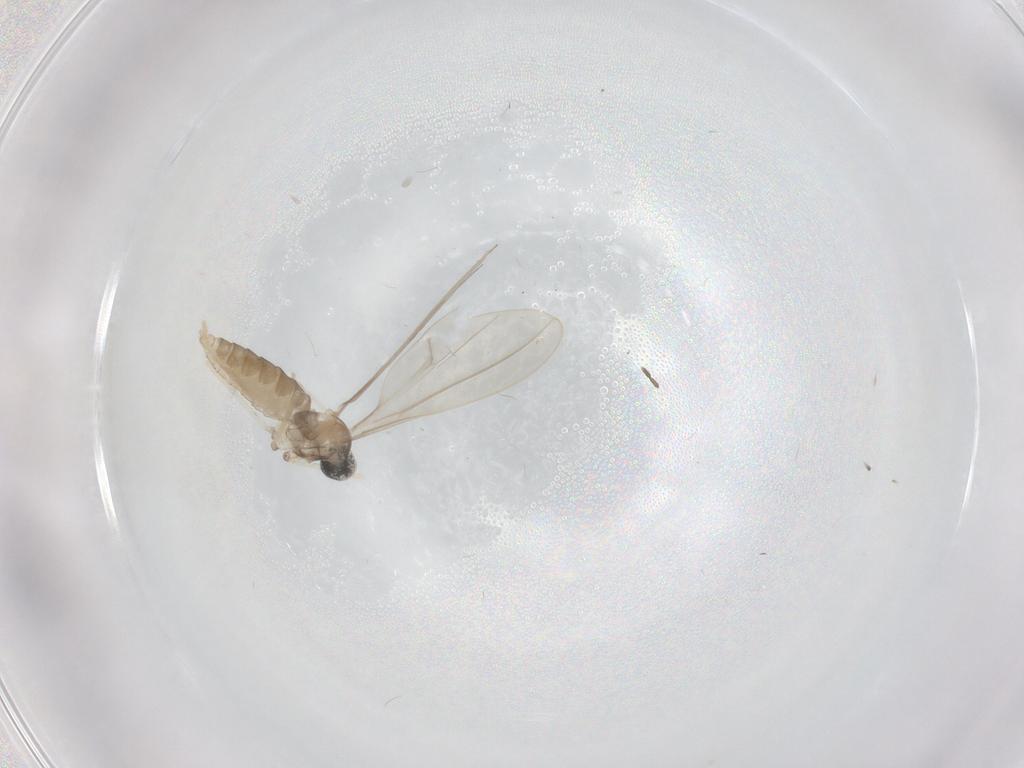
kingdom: Animalia
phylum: Arthropoda
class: Insecta
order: Diptera
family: Cecidomyiidae
